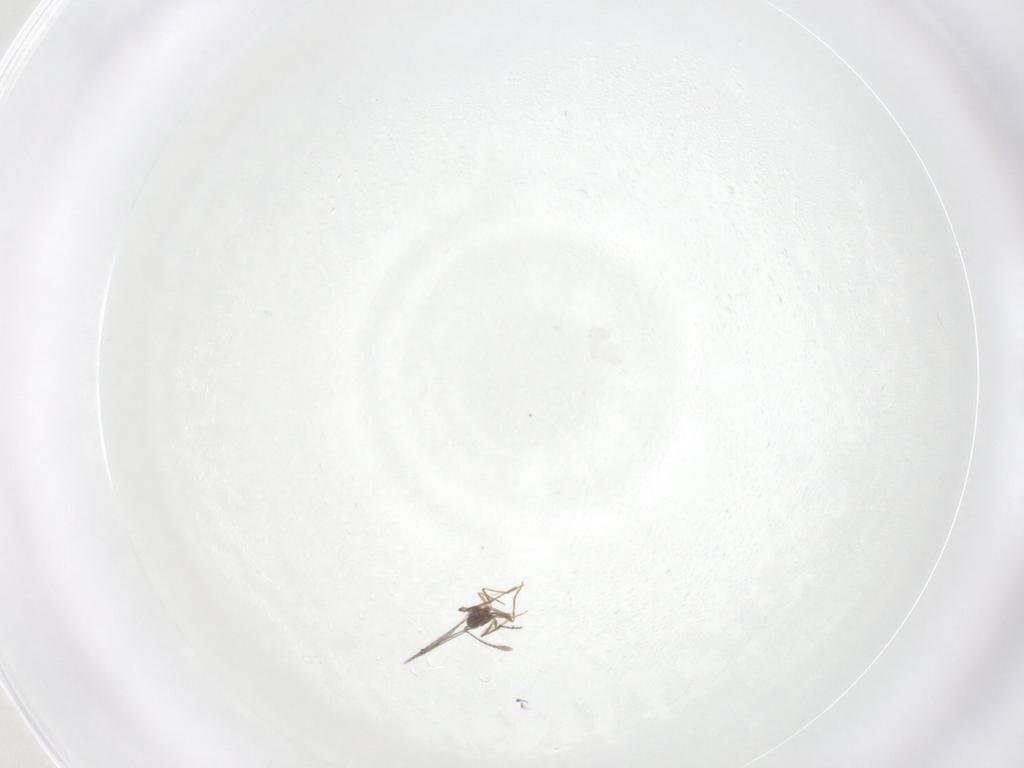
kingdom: Animalia
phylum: Arthropoda
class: Insecta
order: Hymenoptera
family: Mymaridae
